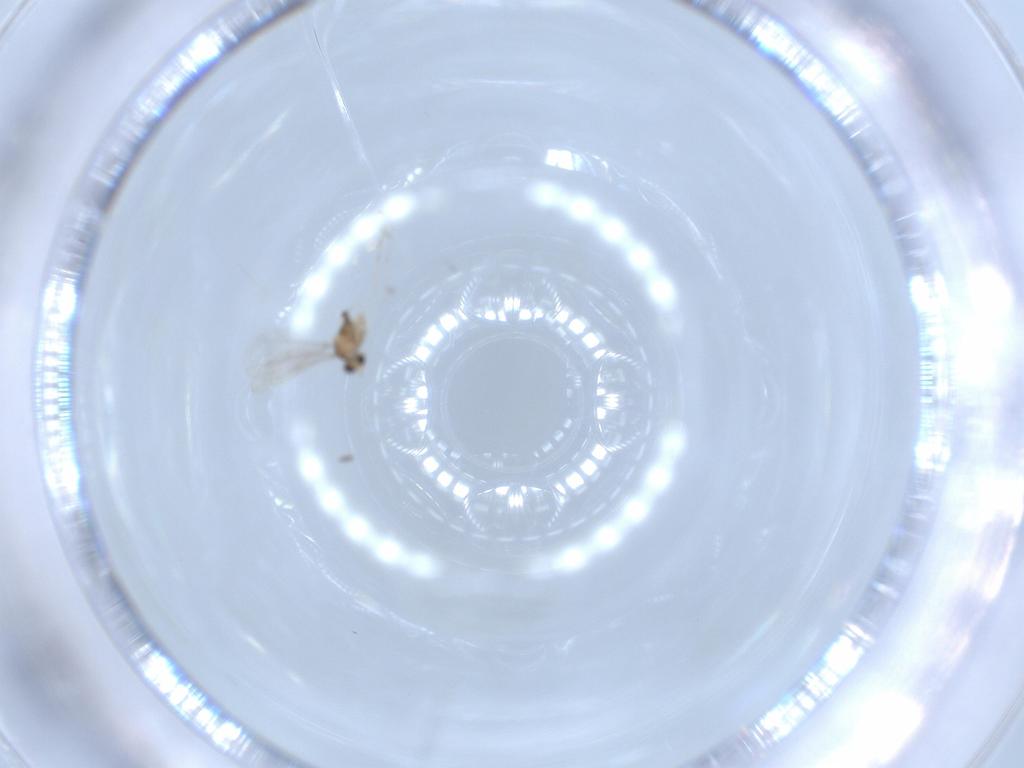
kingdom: Animalia
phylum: Arthropoda
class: Insecta
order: Diptera
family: Cecidomyiidae
